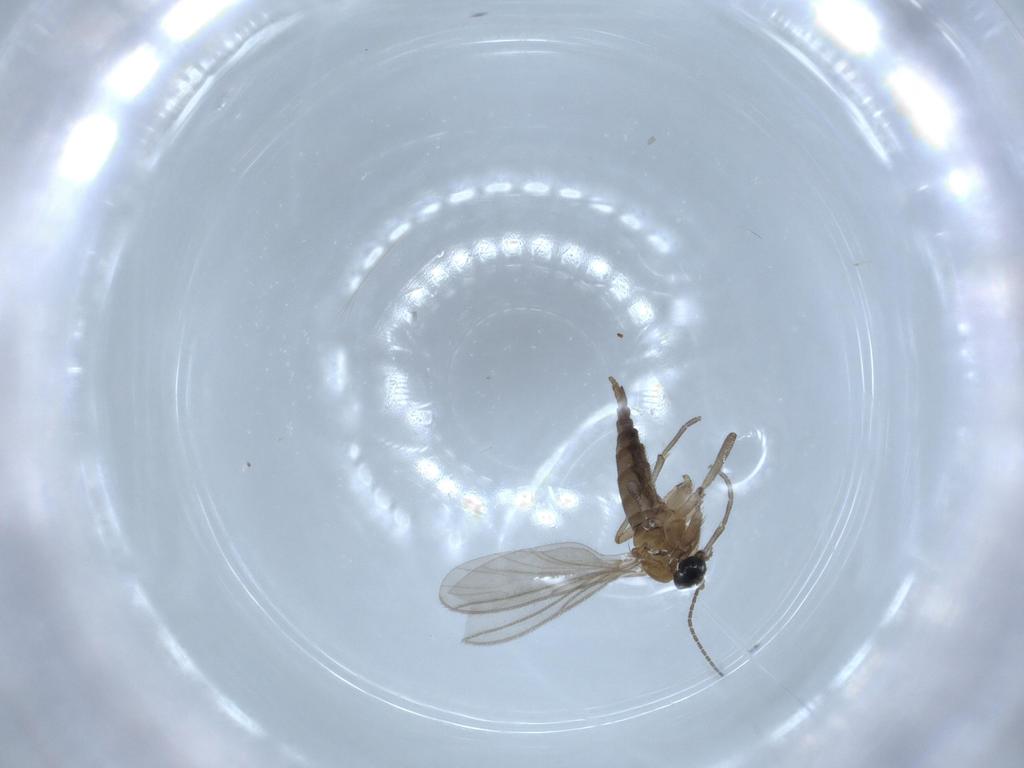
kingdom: Animalia
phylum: Arthropoda
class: Insecta
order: Diptera
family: Sciaridae
